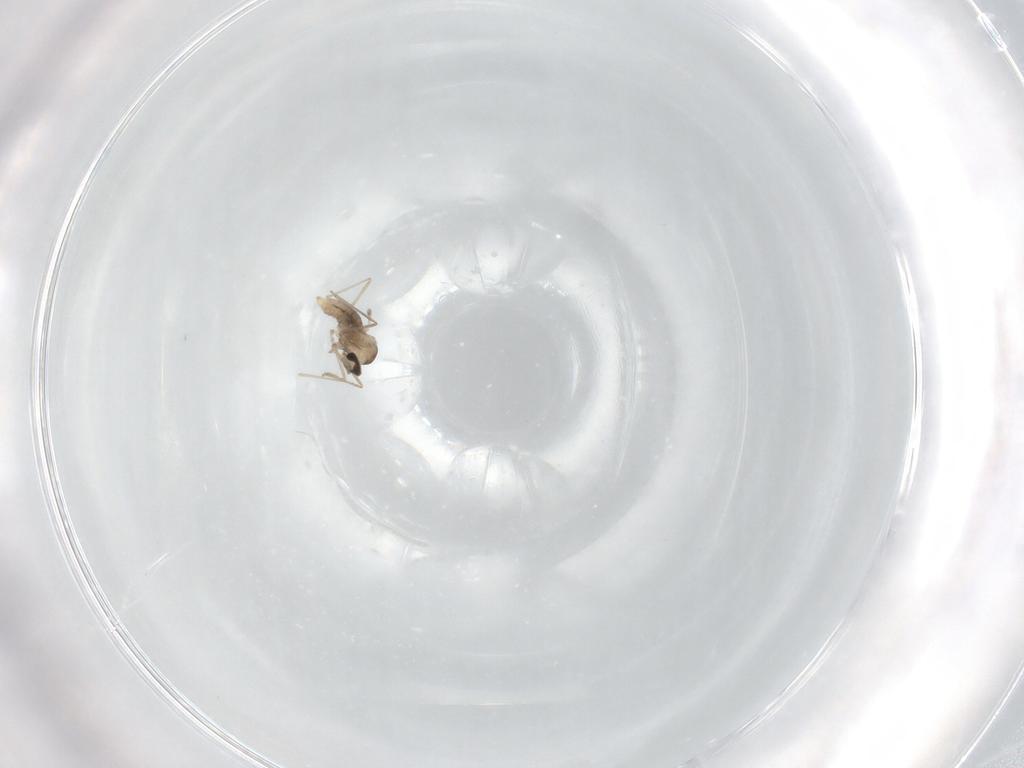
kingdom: Animalia
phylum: Arthropoda
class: Insecta
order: Diptera
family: Cecidomyiidae
